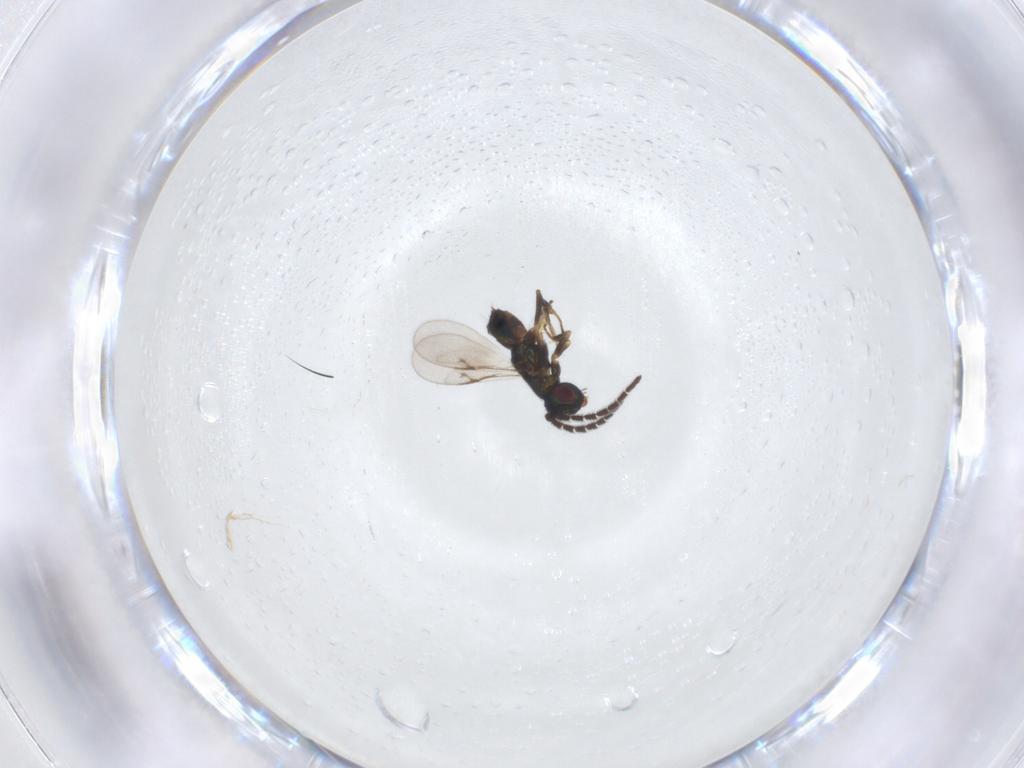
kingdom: Animalia
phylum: Arthropoda
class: Insecta
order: Hymenoptera
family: Encyrtidae
